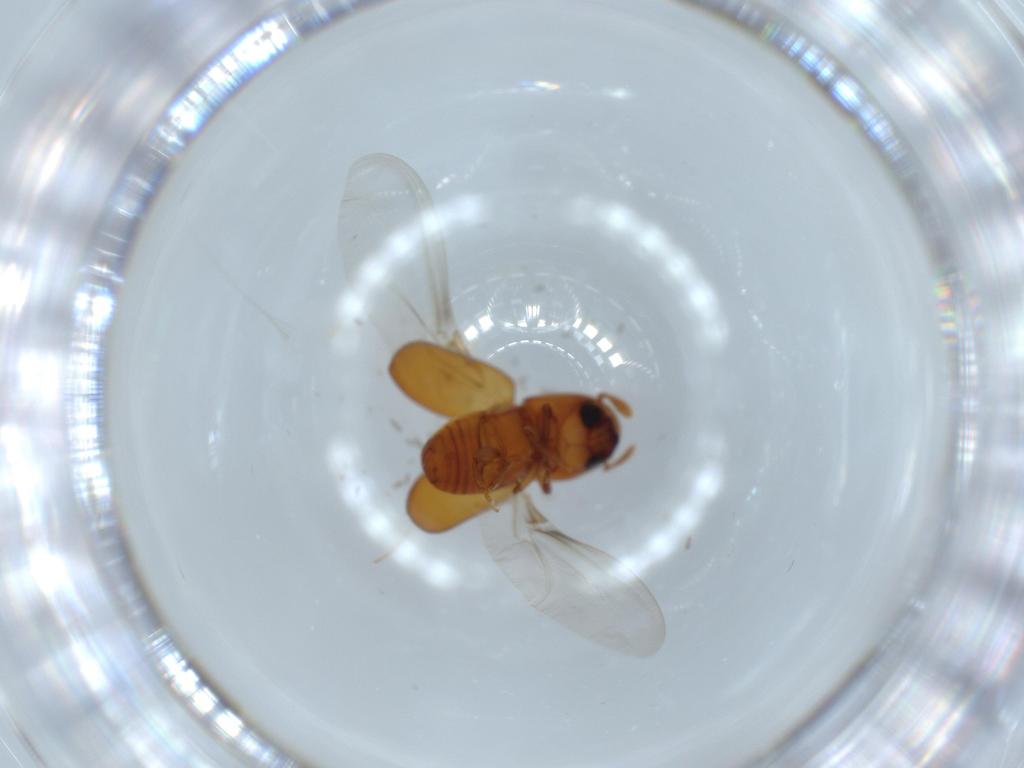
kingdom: Animalia
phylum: Arthropoda
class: Insecta
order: Coleoptera
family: Curculionidae
